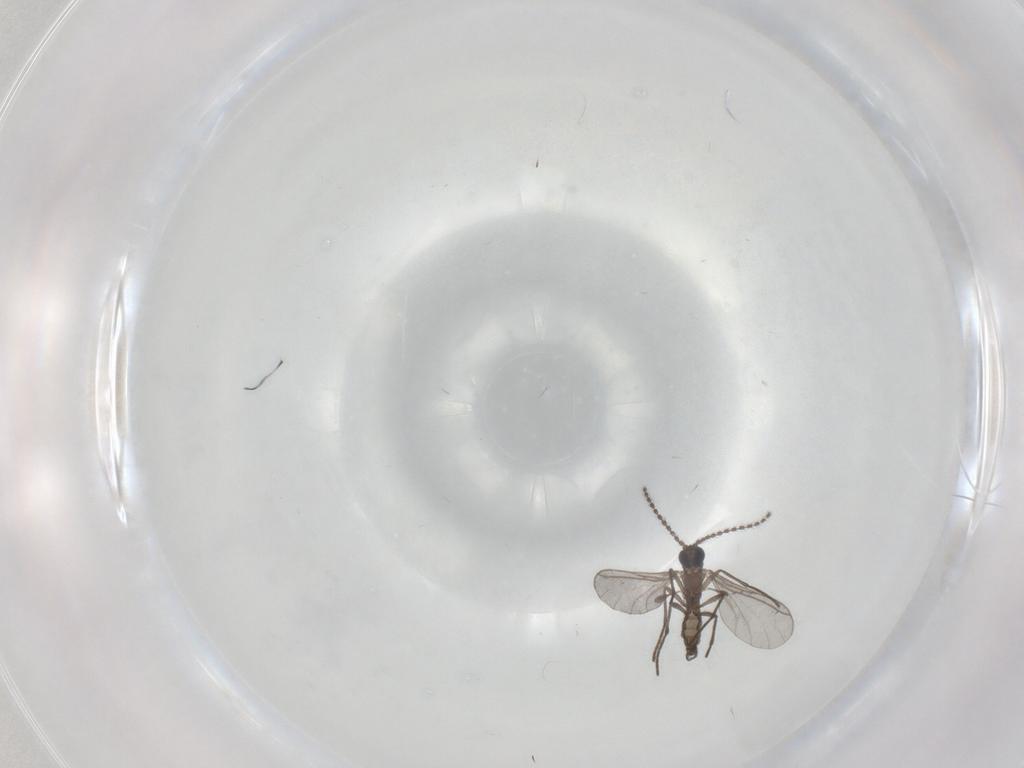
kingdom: Animalia
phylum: Arthropoda
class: Insecta
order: Diptera
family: Phoridae
